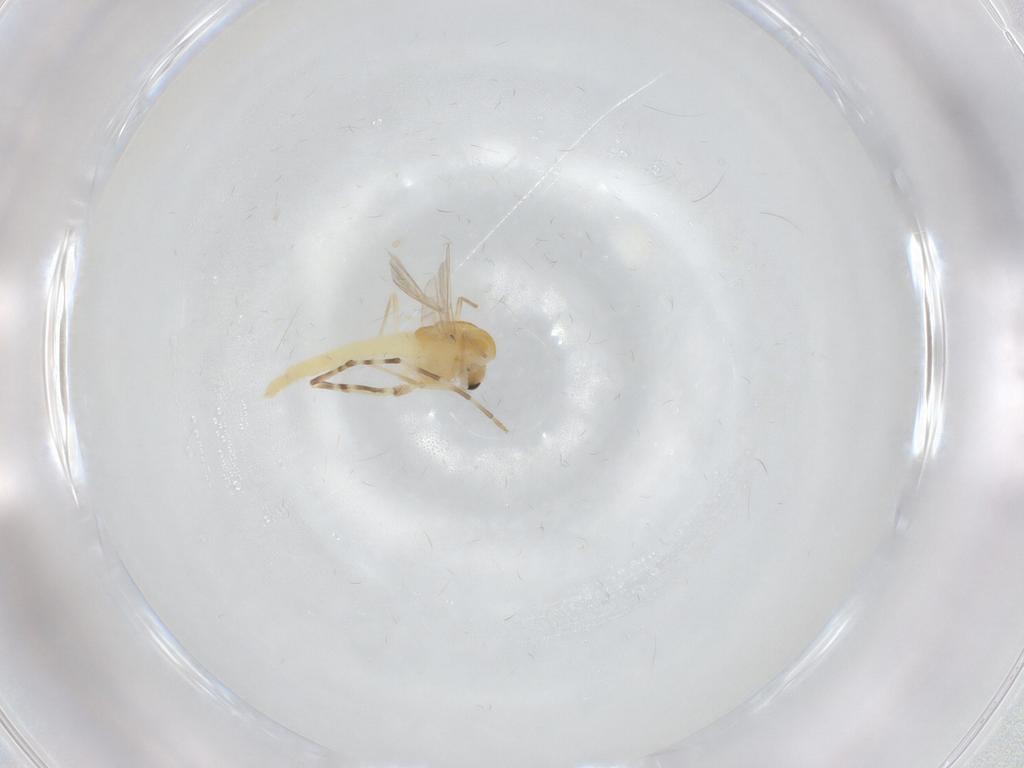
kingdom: Animalia
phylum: Arthropoda
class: Insecta
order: Diptera
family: Chironomidae
